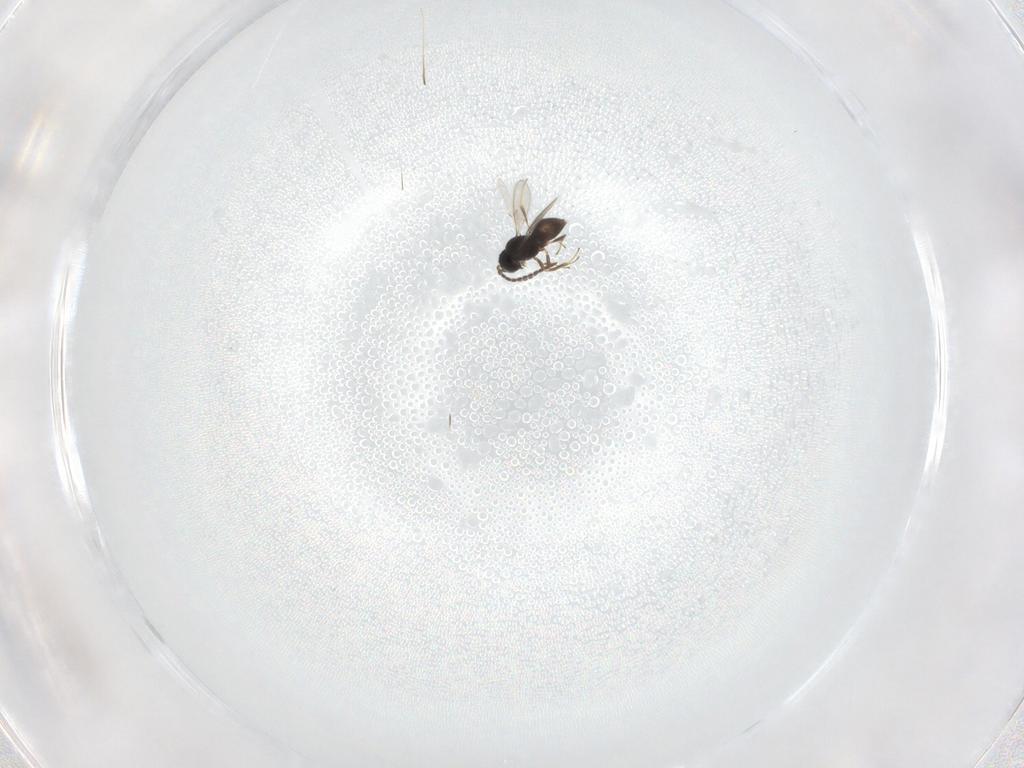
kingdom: Animalia
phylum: Arthropoda
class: Insecta
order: Hymenoptera
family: Scelionidae
